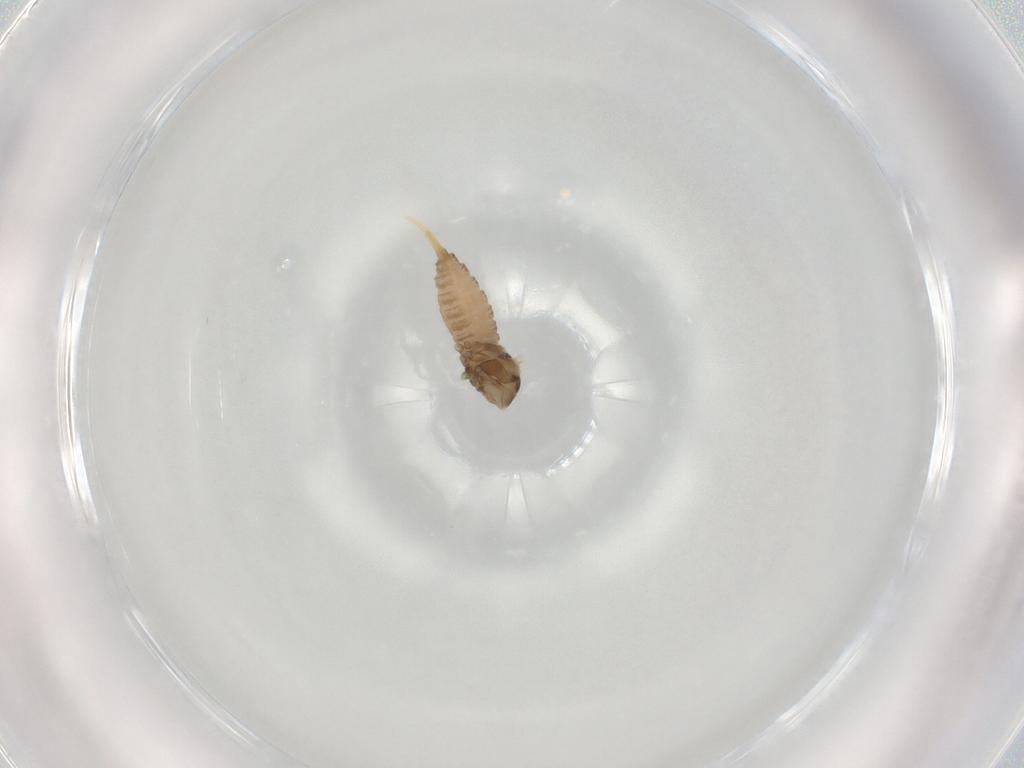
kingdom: Animalia
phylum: Arthropoda
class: Insecta
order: Diptera
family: Cecidomyiidae
